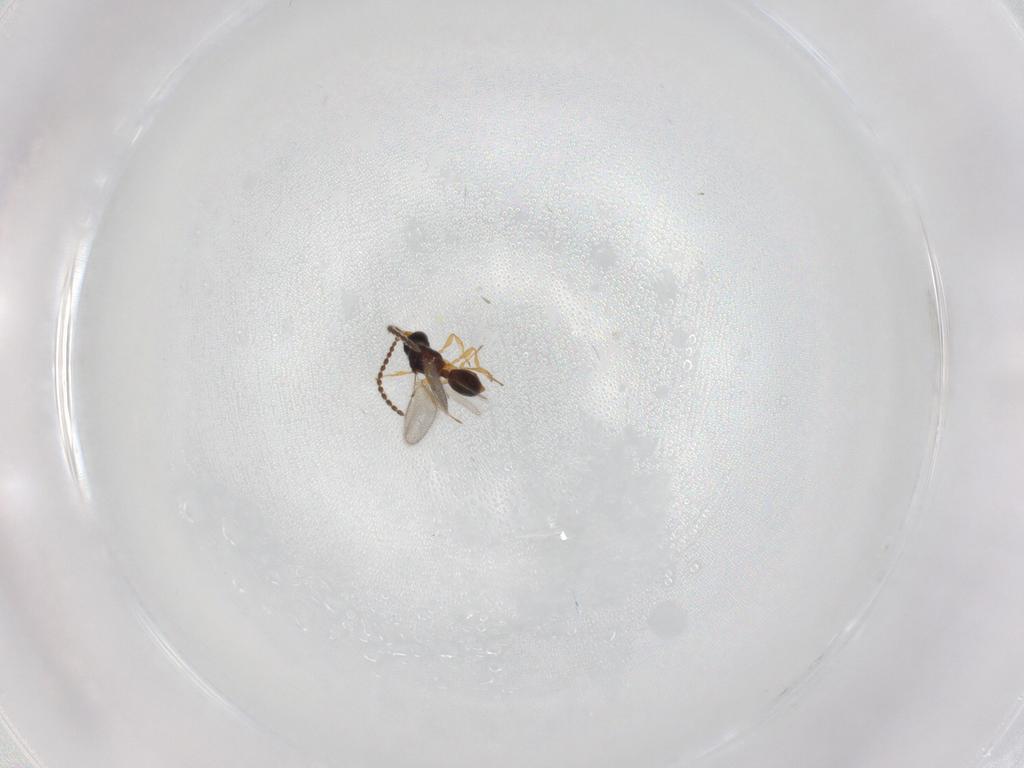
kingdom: Animalia
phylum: Arthropoda
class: Insecta
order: Hymenoptera
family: Diapriidae
